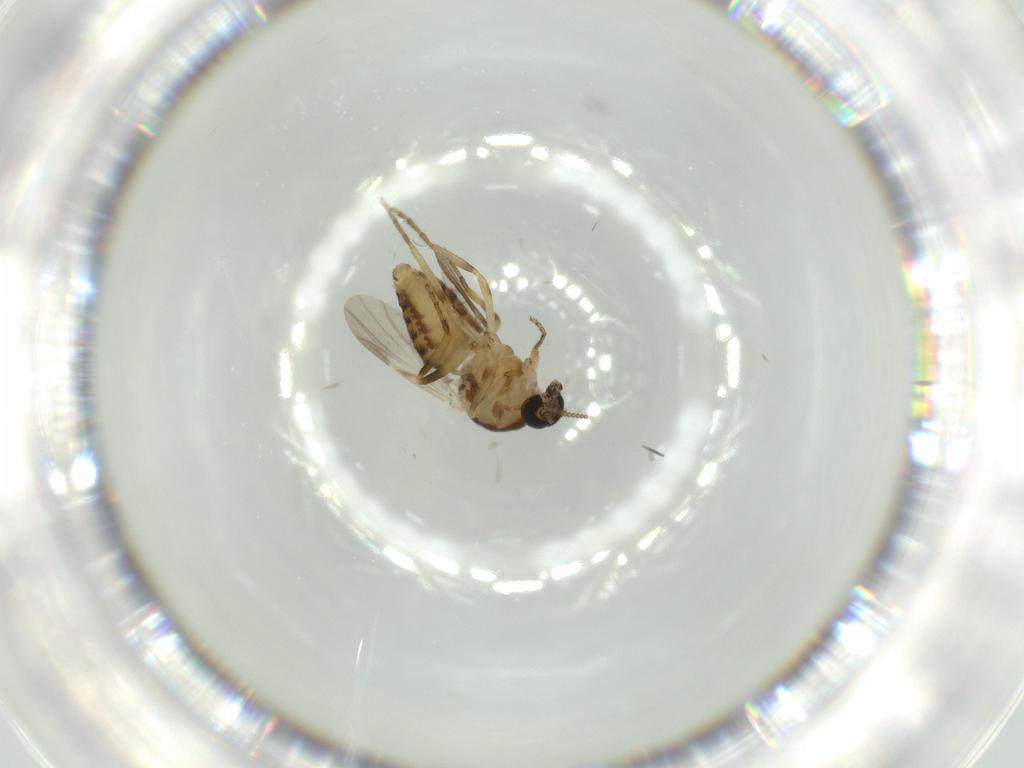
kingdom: Animalia
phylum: Arthropoda
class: Insecta
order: Diptera
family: Ceratopogonidae
